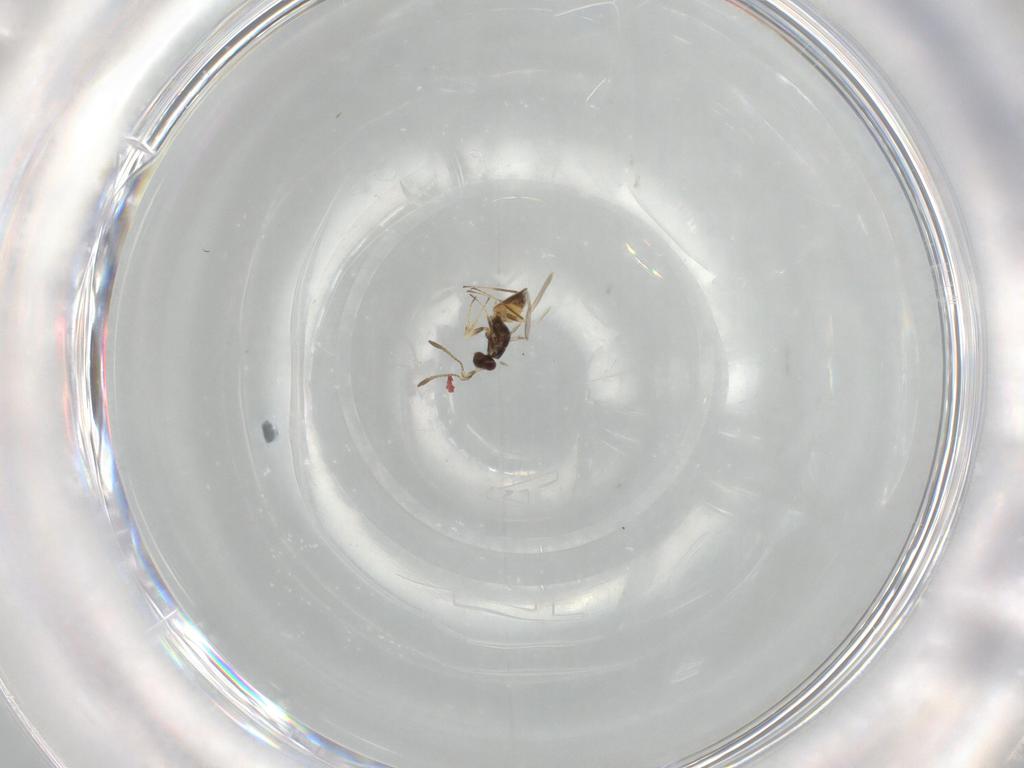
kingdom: Animalia
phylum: Arthropoda
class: Insecta
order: Hymenoptera
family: Mymaridae
